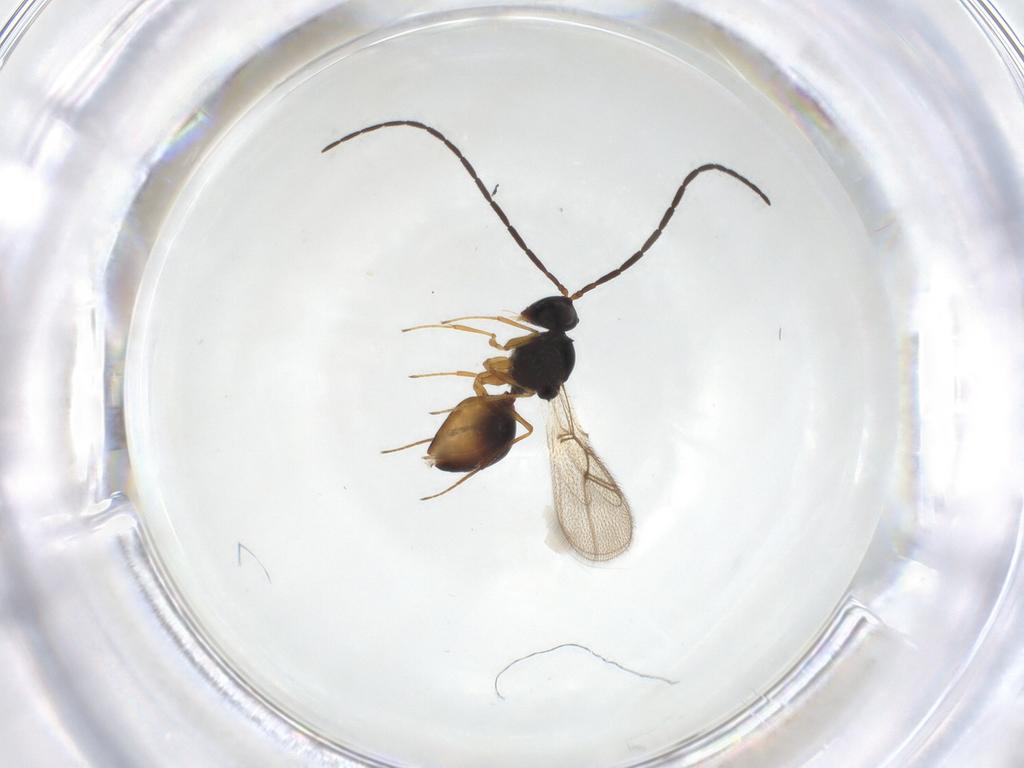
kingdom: Animalia
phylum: Arthropoda
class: Insecta
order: Hymenoptera
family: Figitidae
